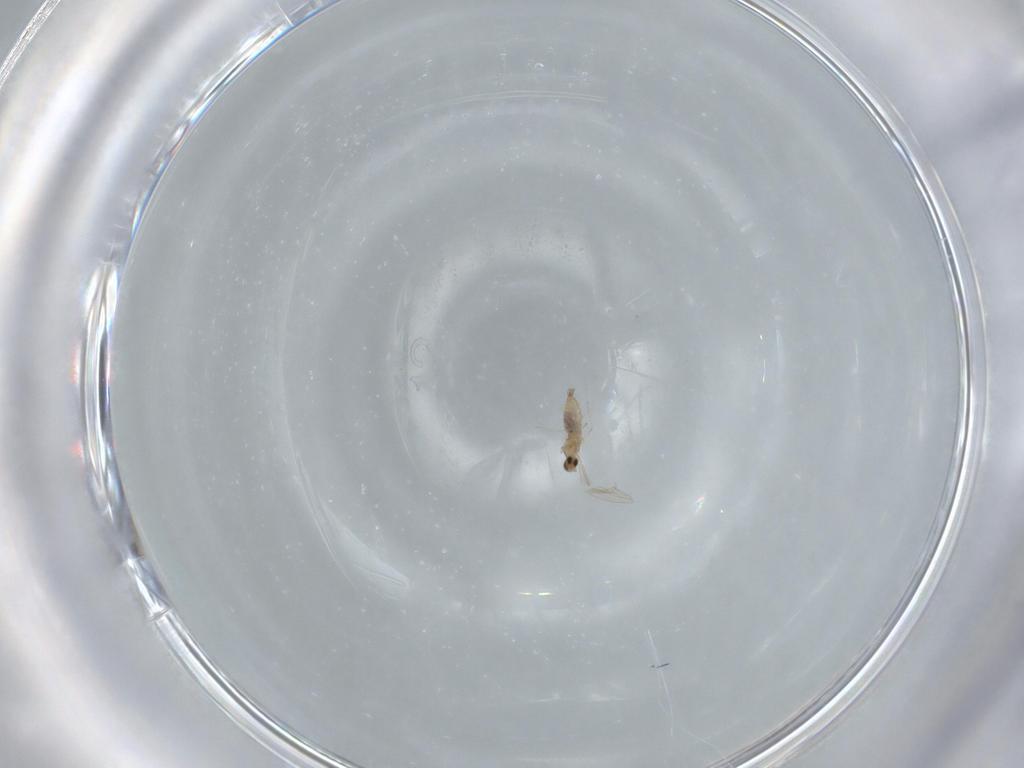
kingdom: Animalia
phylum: Arthropoda
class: Insecta
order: Diptera
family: Cecidomyiidae
